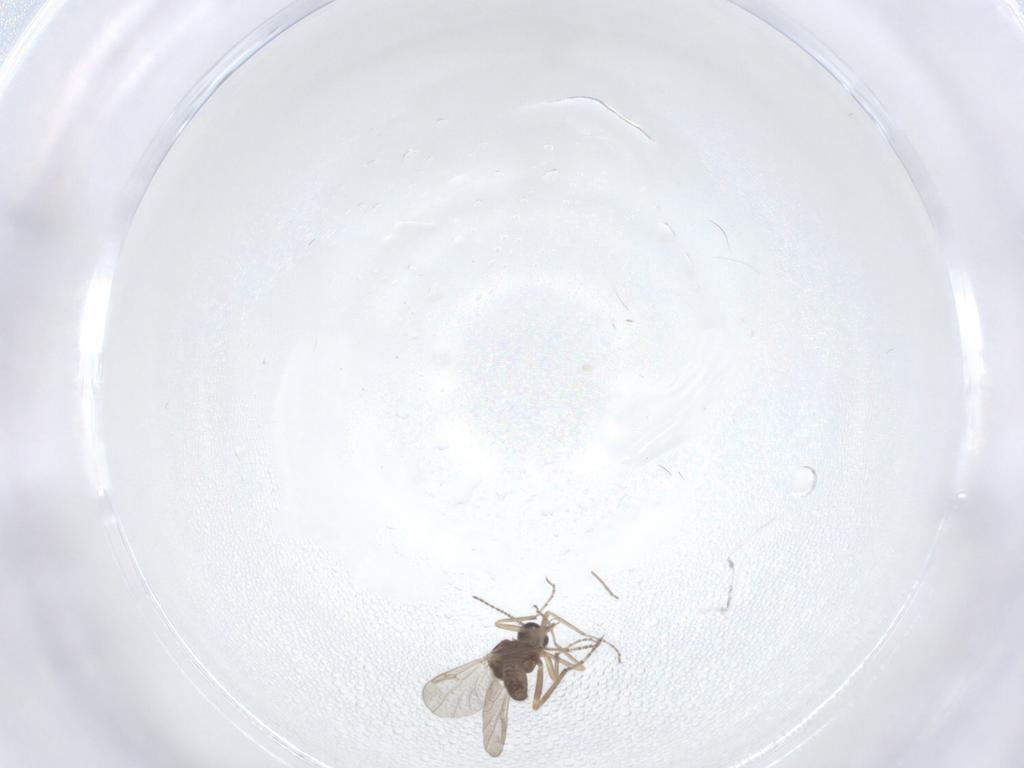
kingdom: Animalia
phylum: Arthropoda
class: Insecta
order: Diptera
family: Ceratopogonidae
